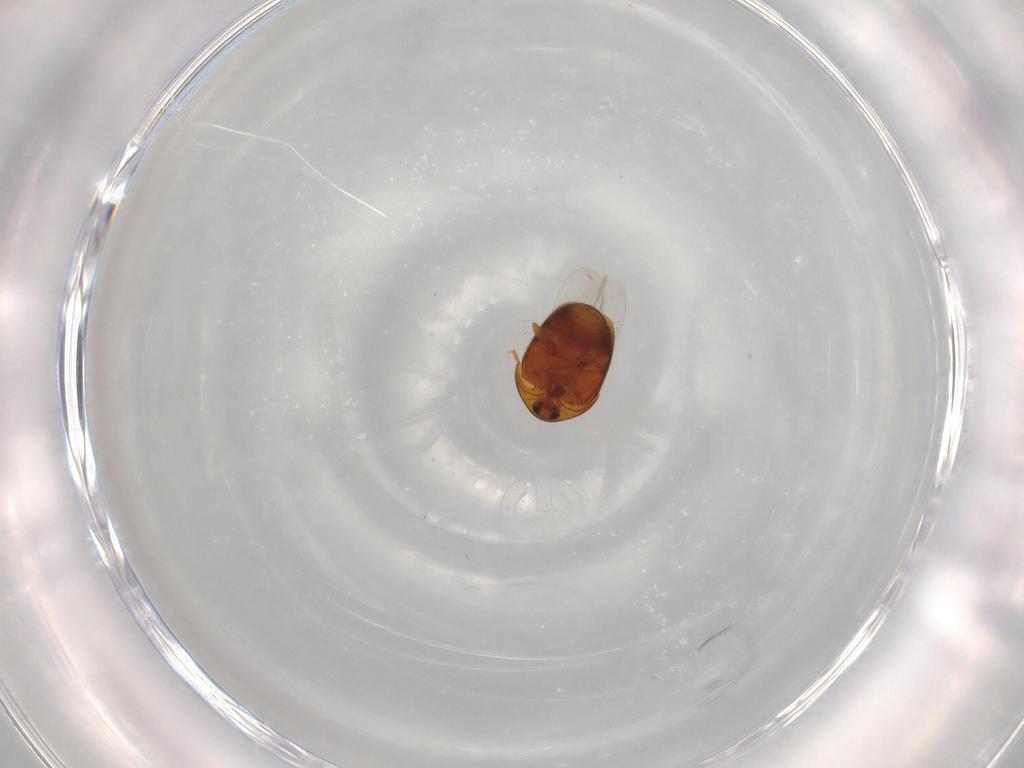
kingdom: Animalia
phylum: Arthropoda
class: Insecta
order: Coleoptera
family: Corylophidae
